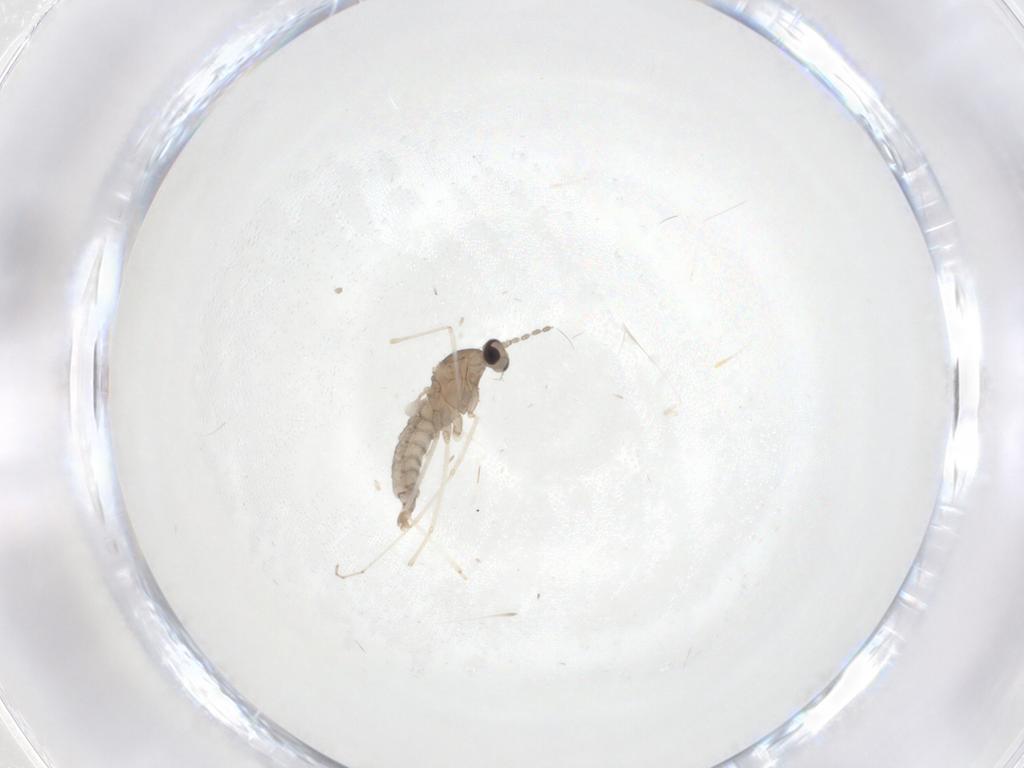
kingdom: Animalia
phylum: Arthropoda
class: Insecta
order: Diptera
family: Cecidomyiidae
